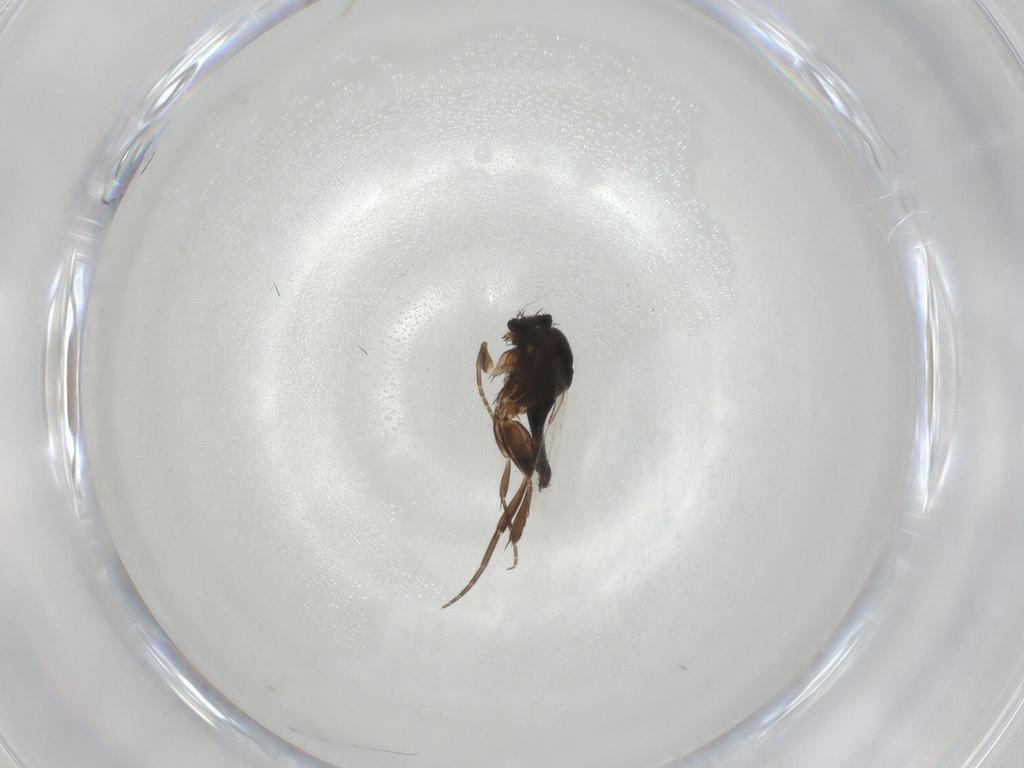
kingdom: Animalia
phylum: Arthropoda
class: Insecta
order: Diptera
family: Phoridae
